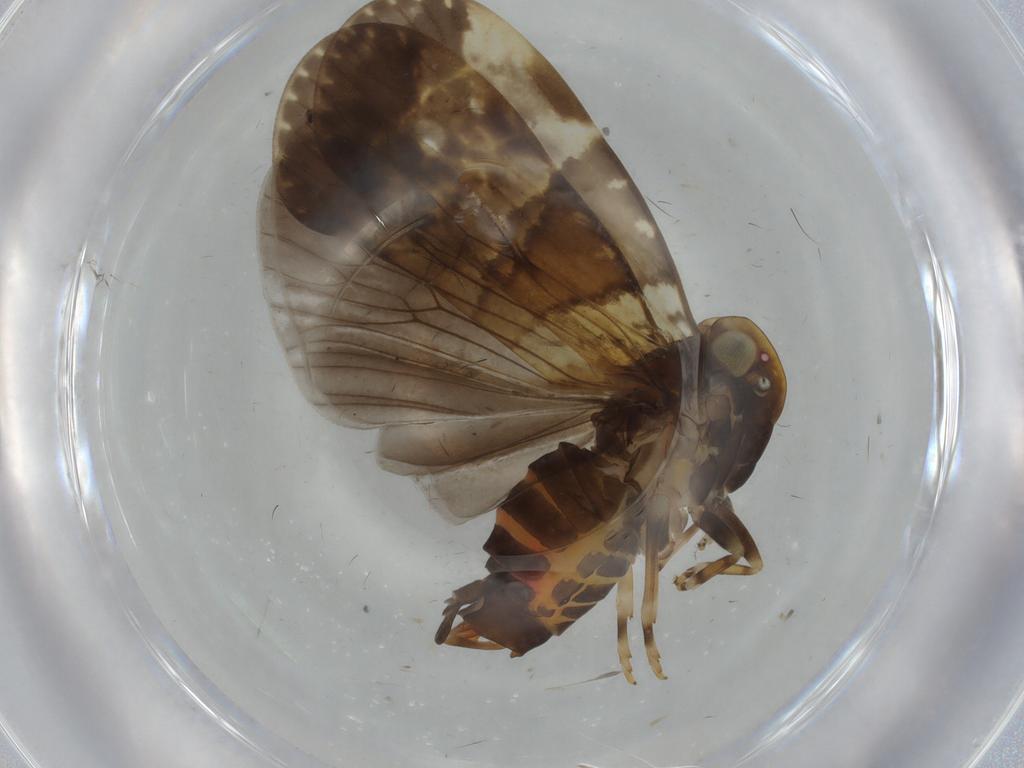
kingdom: Animalia
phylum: Arthropoda
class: Insecta
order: Hemiptera
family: Cixiidae
